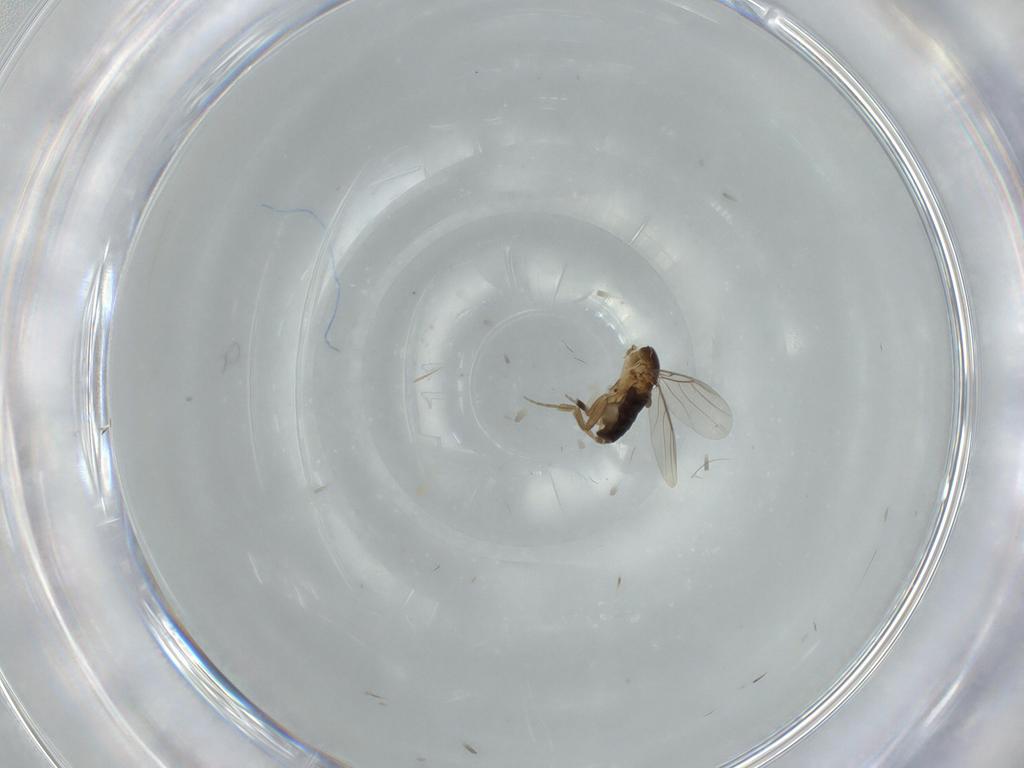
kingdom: Animalia
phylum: Arthropoda
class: Insecta
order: Diptera
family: Phoridae
